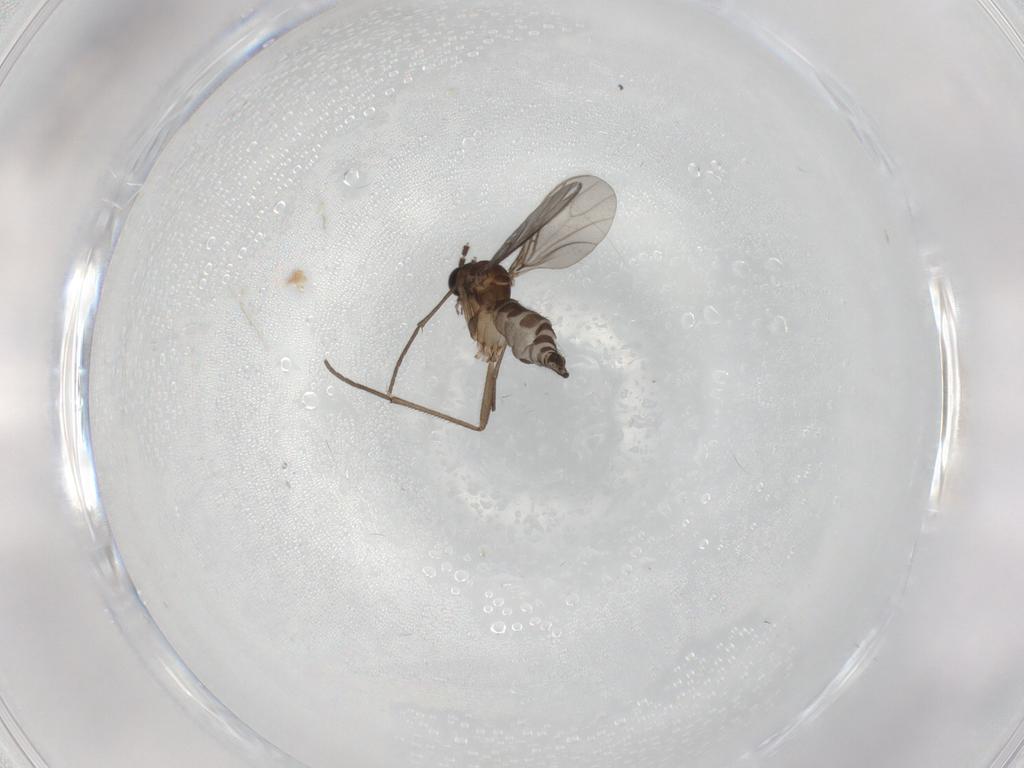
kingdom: Animalia
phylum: Arthropoda
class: Insecta
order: Diptera
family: Sciaridae
